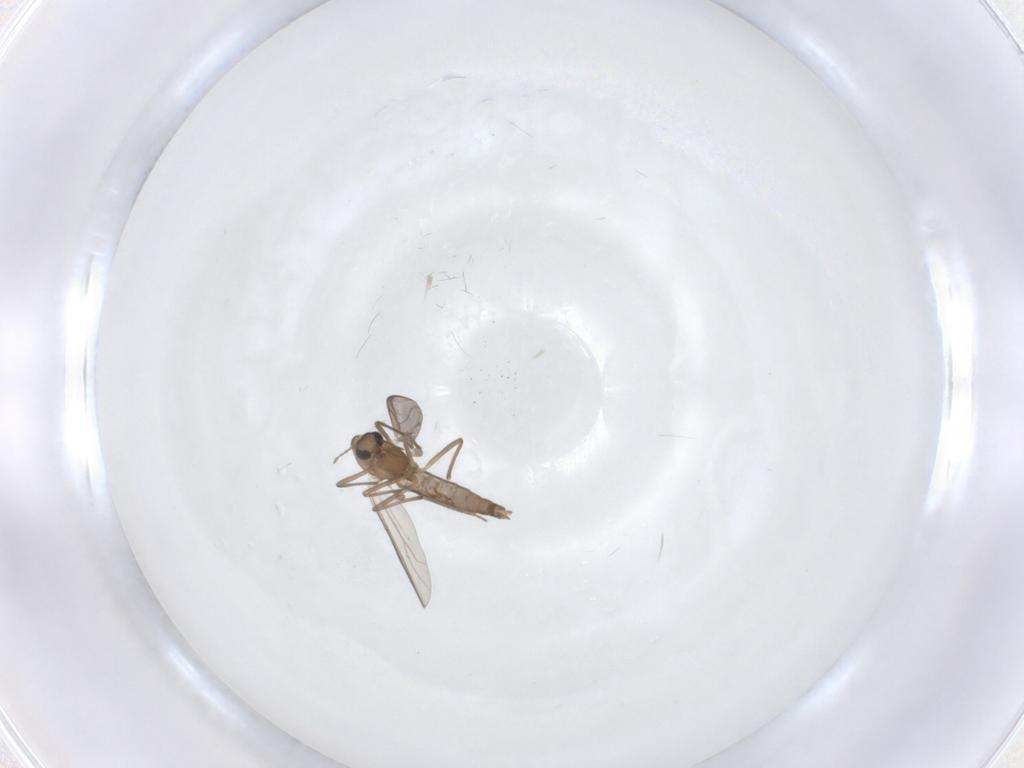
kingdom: Animalia
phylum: Arthropoda
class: Insecta
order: Diptera
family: Chironomidae
